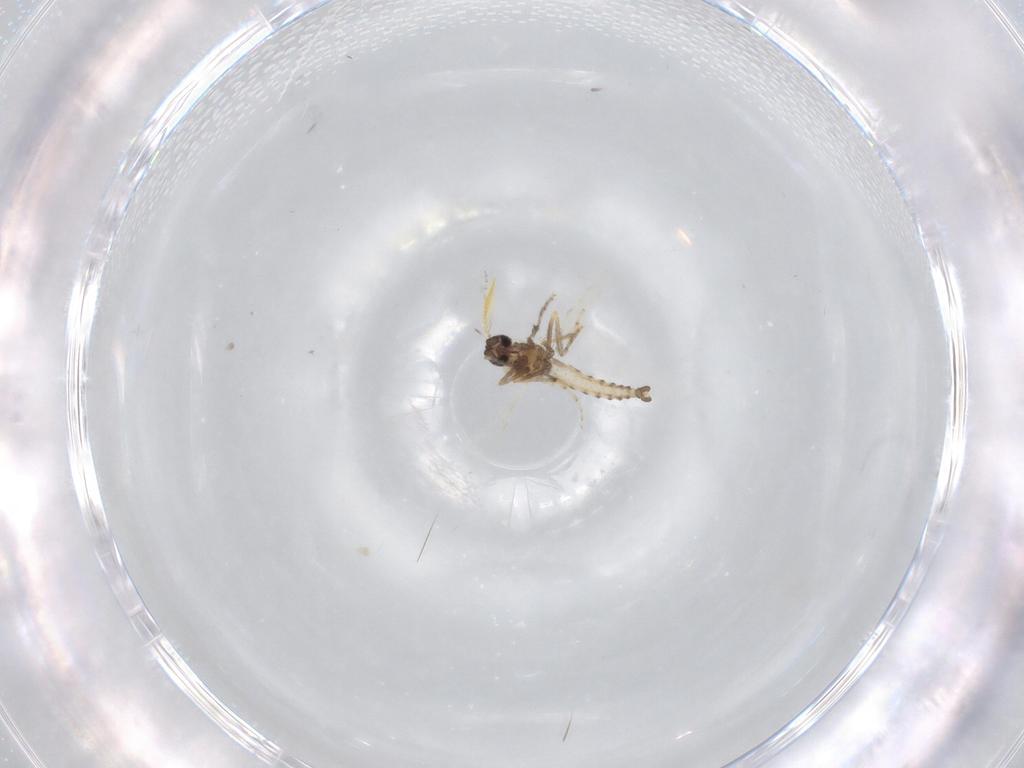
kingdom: Animalia
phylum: Arthropoda
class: Insecta
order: Diptera
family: Ceratopogonidae
